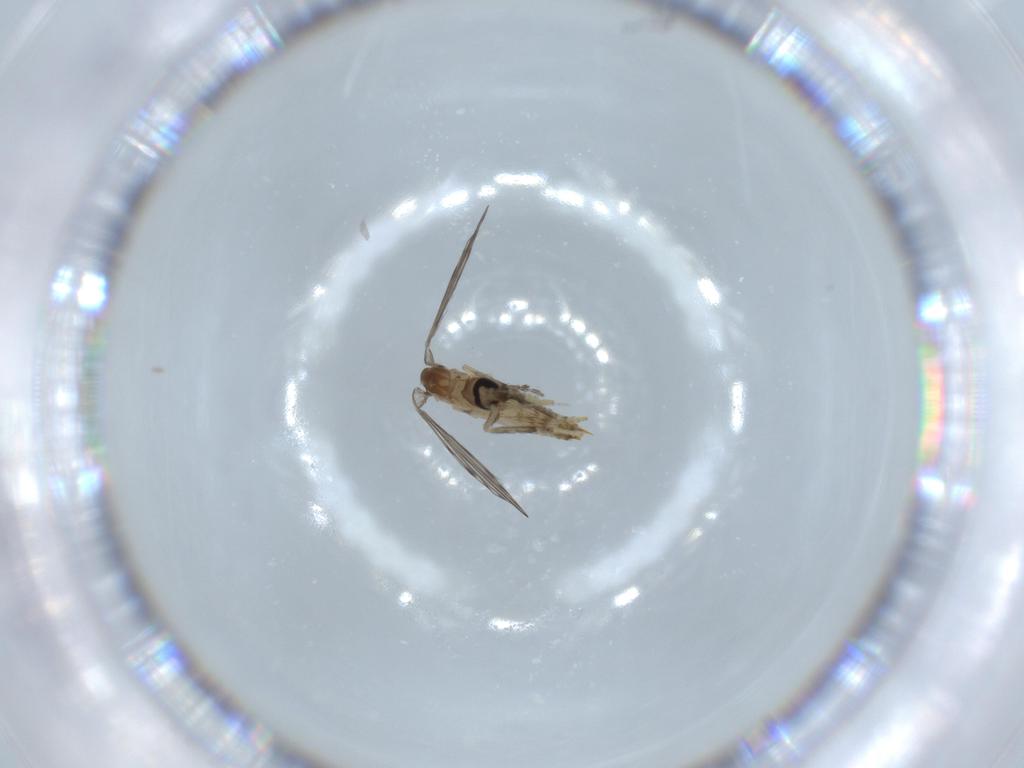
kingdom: Animalia
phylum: Arthropoda
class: Insecta
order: Diptera
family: Psychodidae
